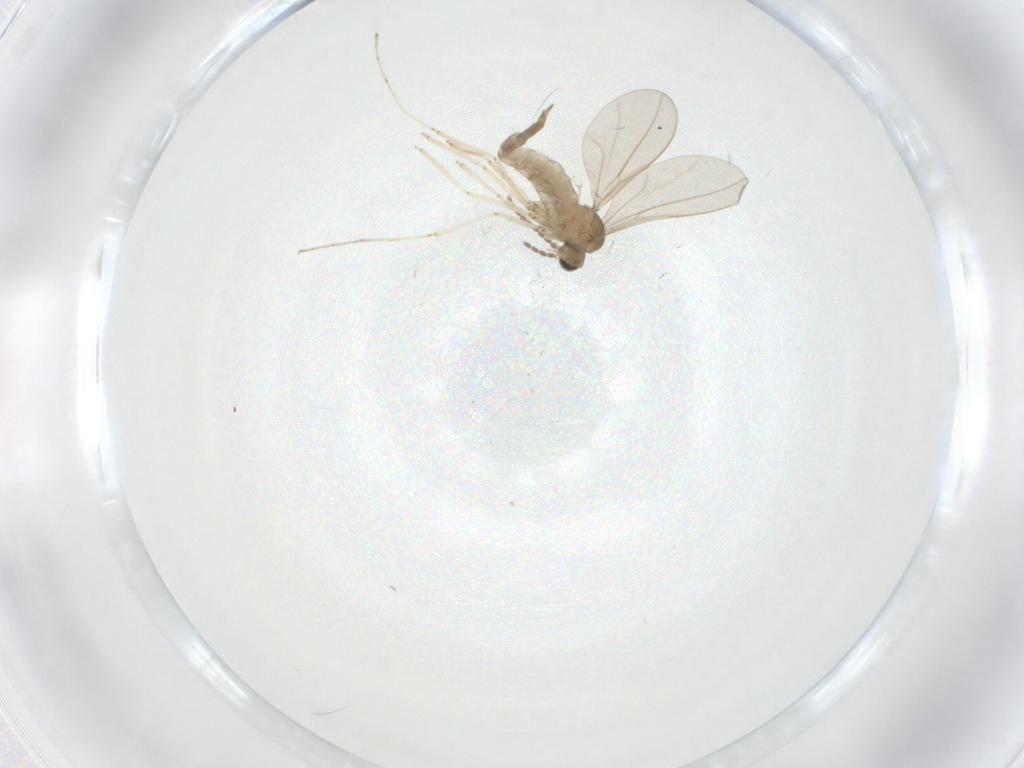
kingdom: Animalia
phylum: Arthropoda
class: Insecta
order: Diptera
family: Cecidomyiidae
